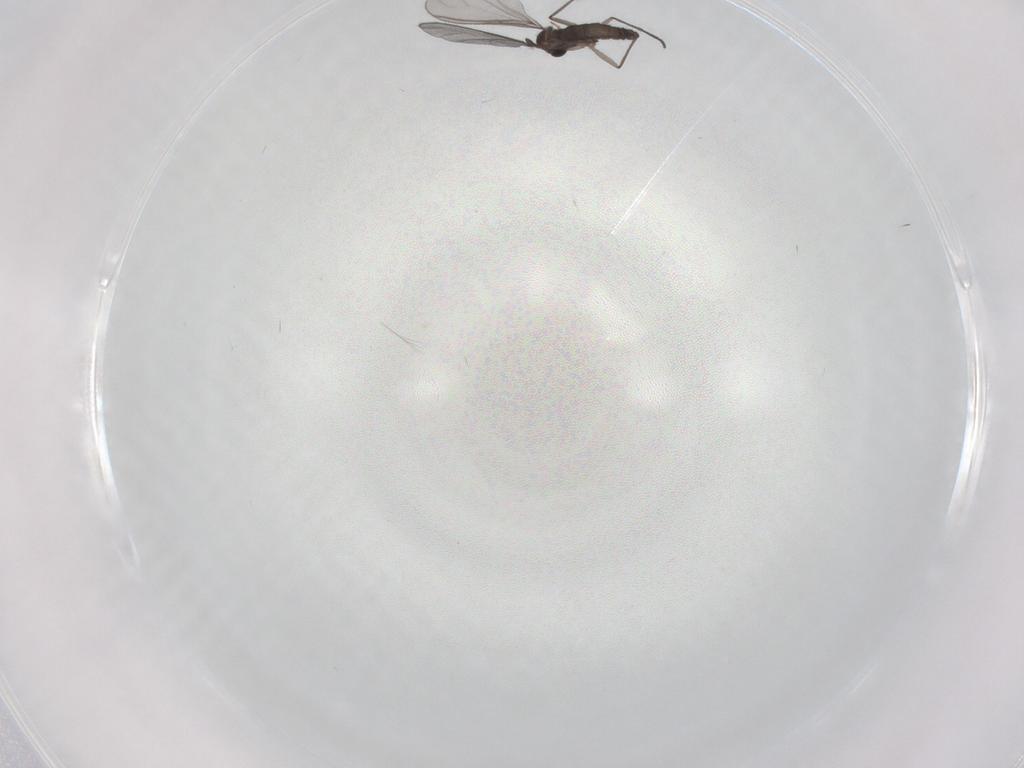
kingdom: Animalia
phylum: Arthropoda
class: Insecta
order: Diptera
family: Sciaridae
